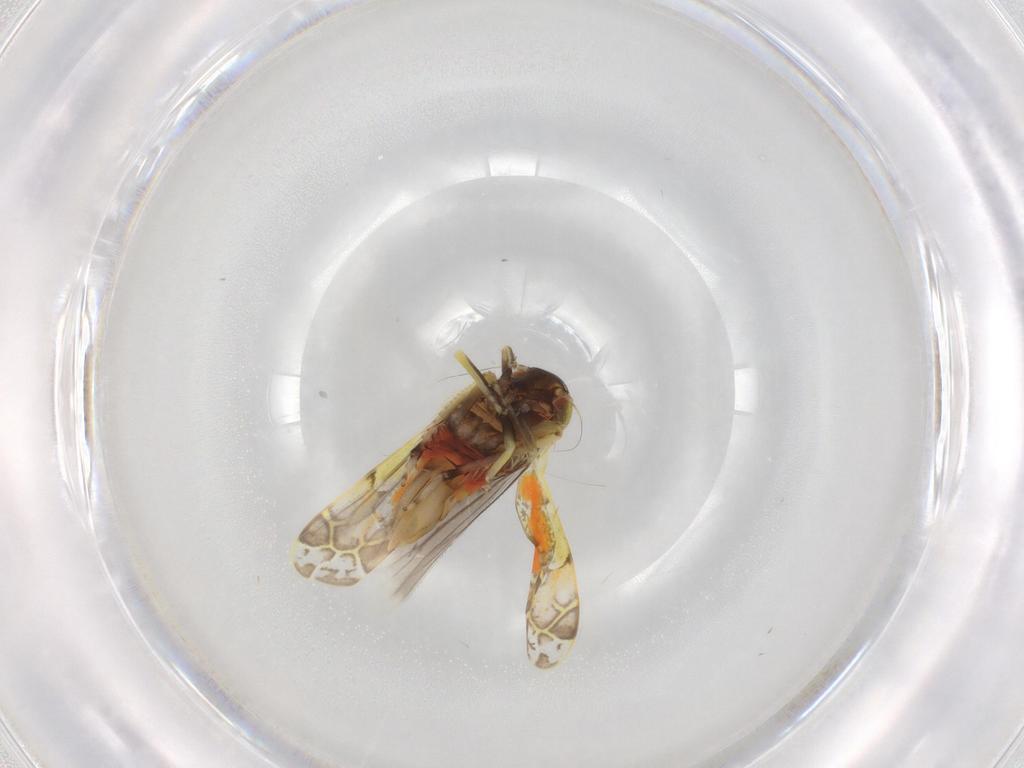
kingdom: Animalia
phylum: Arthropoda
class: Insecta
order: Hemiptera
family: Cicadellidae
